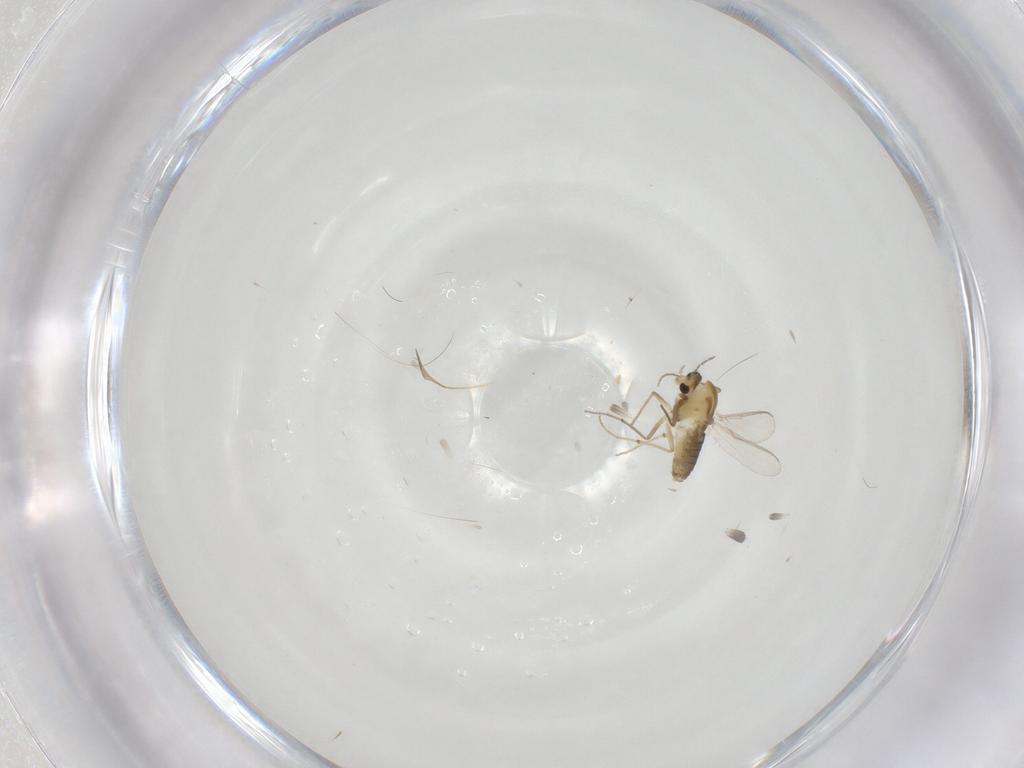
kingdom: Animalia
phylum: Arthropoda
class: Insecta
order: Diptera
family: Chironomidae
